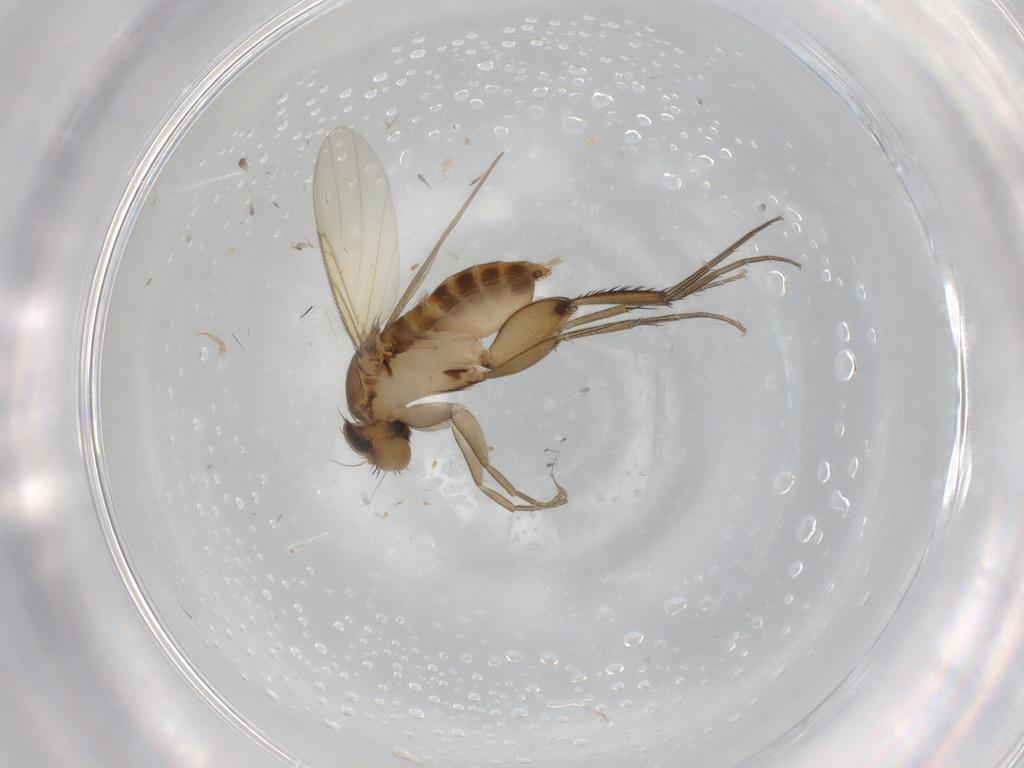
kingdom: Animalia
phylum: Arthropoda
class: Insecta
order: Diptera
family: Phoridae
